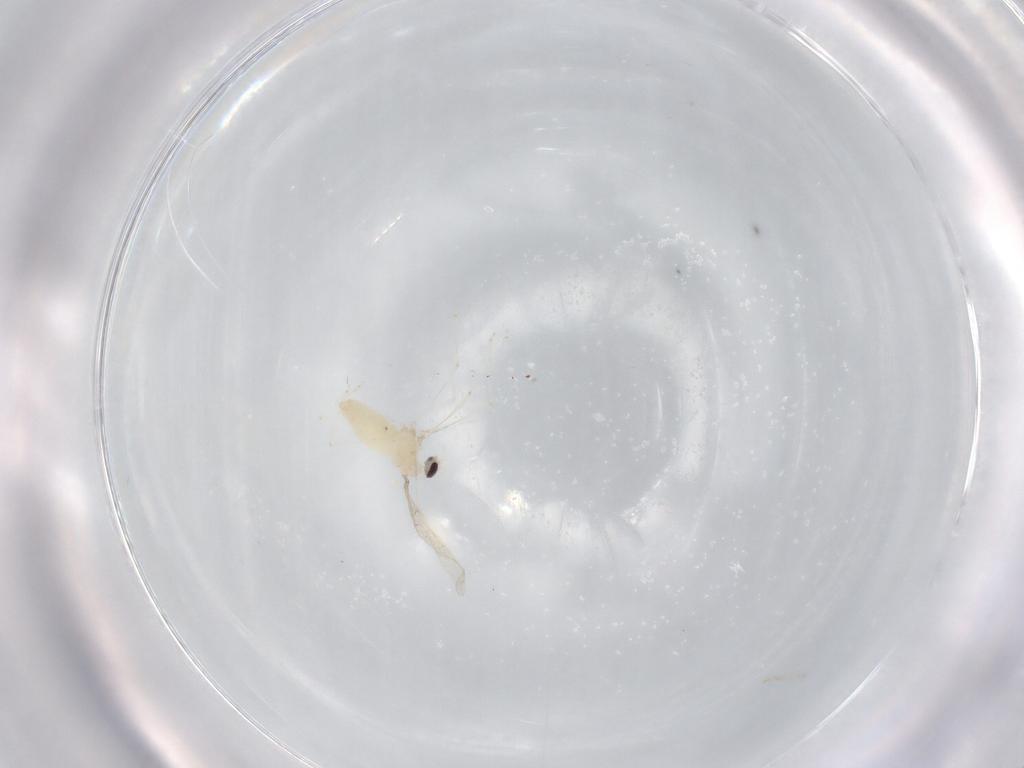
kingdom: Animalia
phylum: Arthropoda
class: Insecta
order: Diptera
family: Cecidomyiidae
